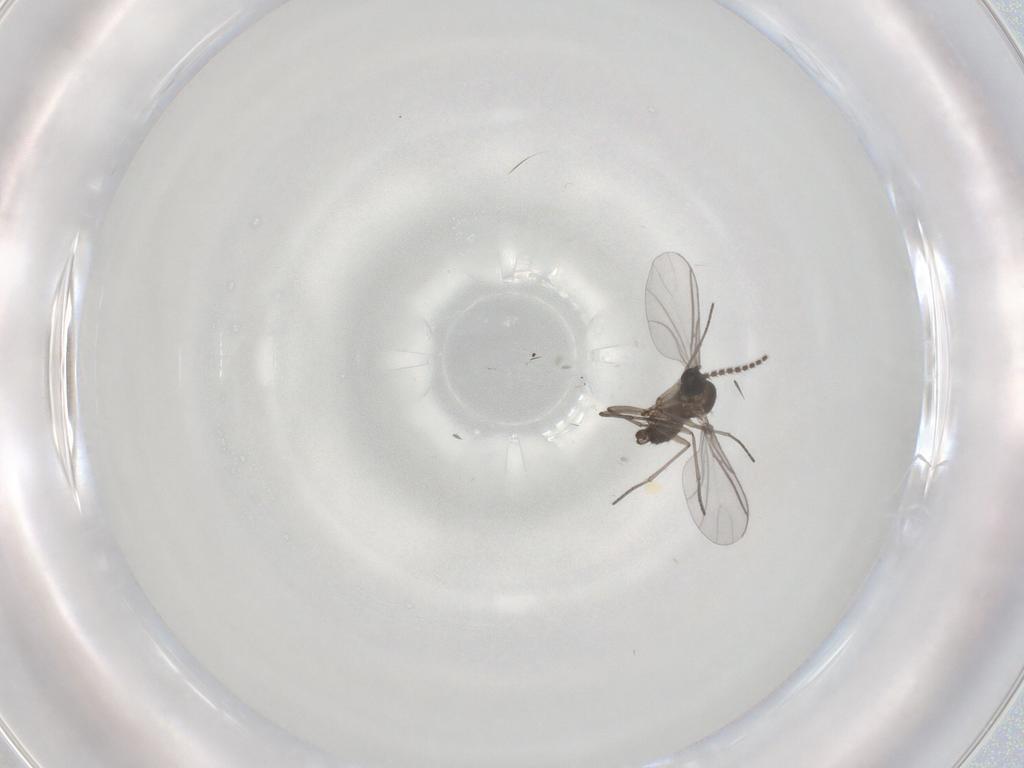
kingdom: Animalia
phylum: Arthropoda
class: Insecta
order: Diptera
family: Sciaridae
